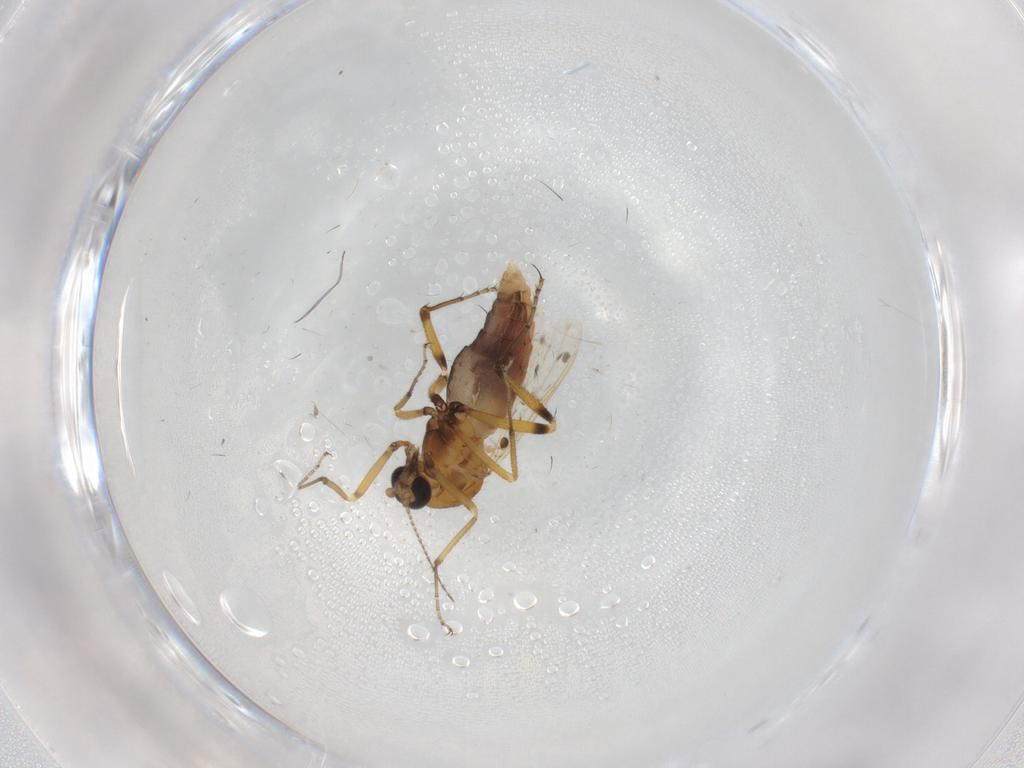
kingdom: Animalia
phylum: Arthropoda
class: Insecta
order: Diptera
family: Ceratopogonidae
